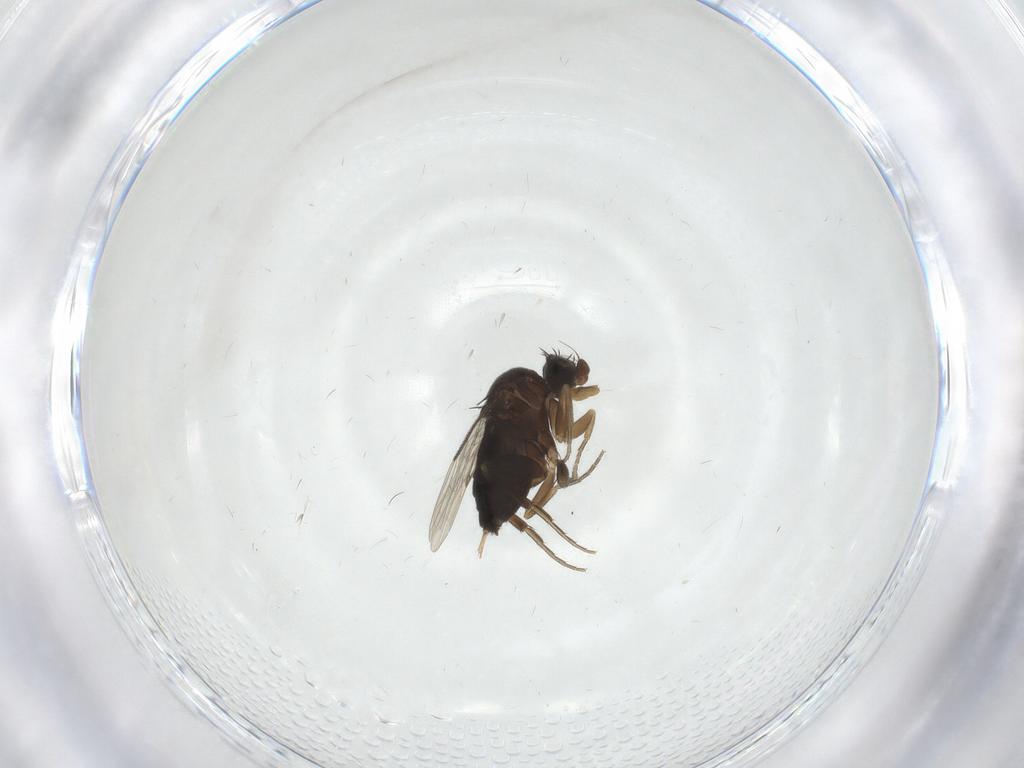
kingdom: Animalia
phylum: Arthropoda
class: Insecta
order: Diptera
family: Phoridae
